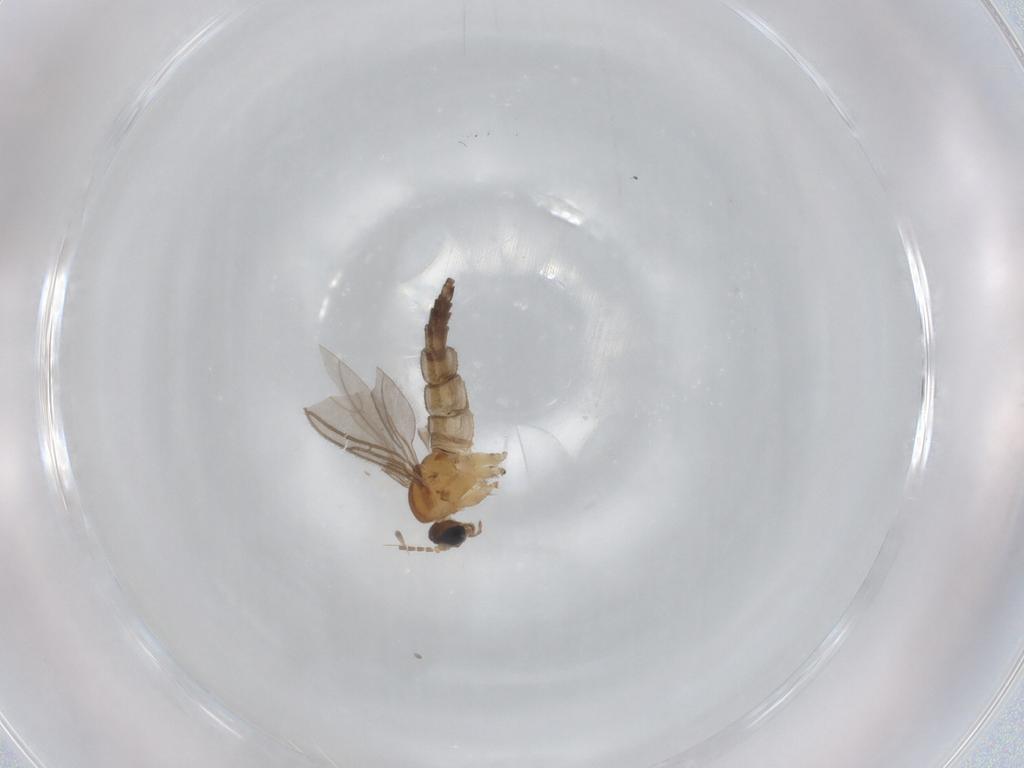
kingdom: Animalia
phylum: Arthropoda
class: Insecta
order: Diptera
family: Sciaridae
